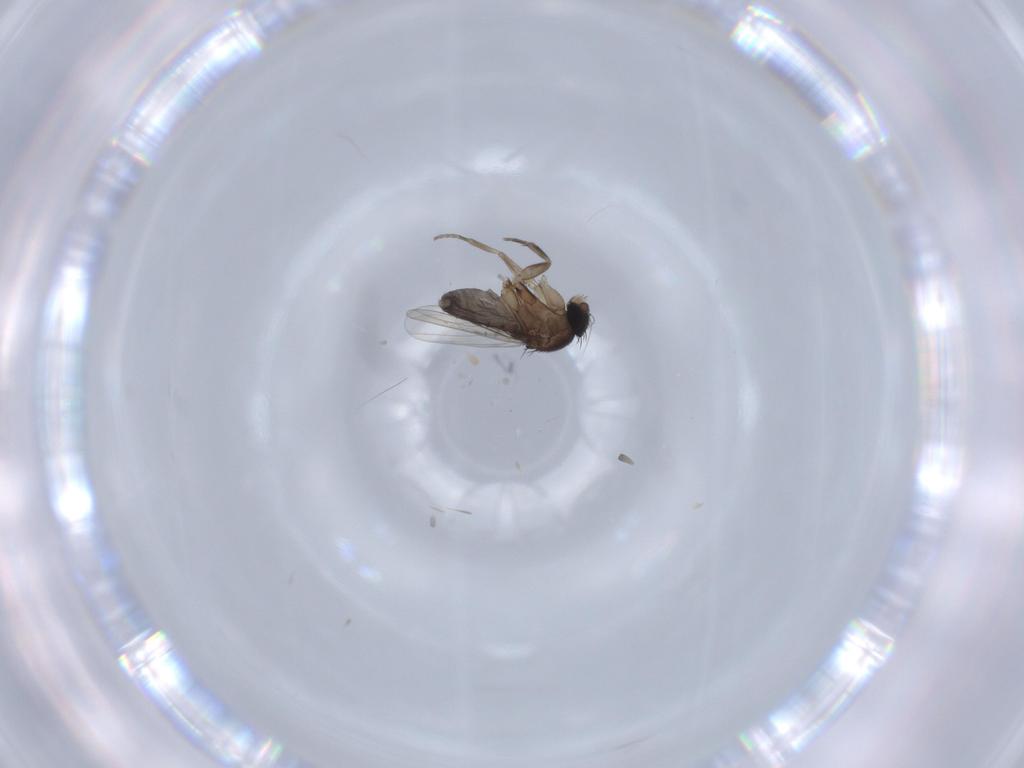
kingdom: Animalia
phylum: Arthropoda
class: Insecta
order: Diptera
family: Phoridae
